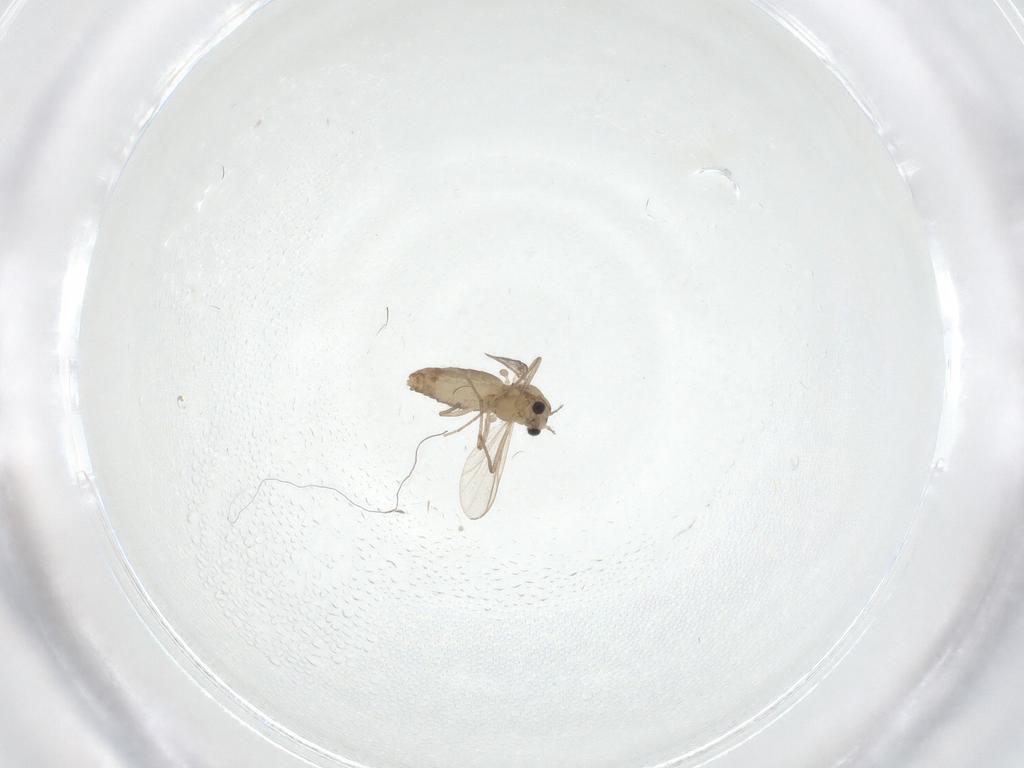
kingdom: Animalia
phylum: Arthropoda
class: Insecta
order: Diptera
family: Chironomidae
